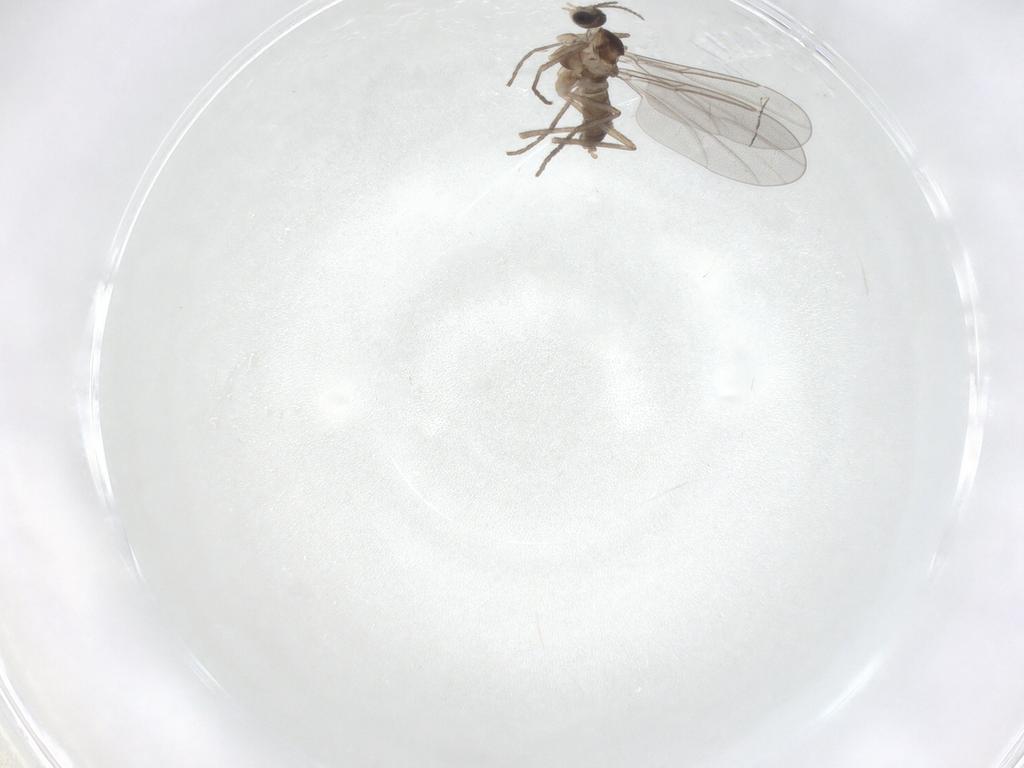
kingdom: Animalia
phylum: Arthropoda
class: Insecta
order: Diptera
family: Cecidomyiidae
